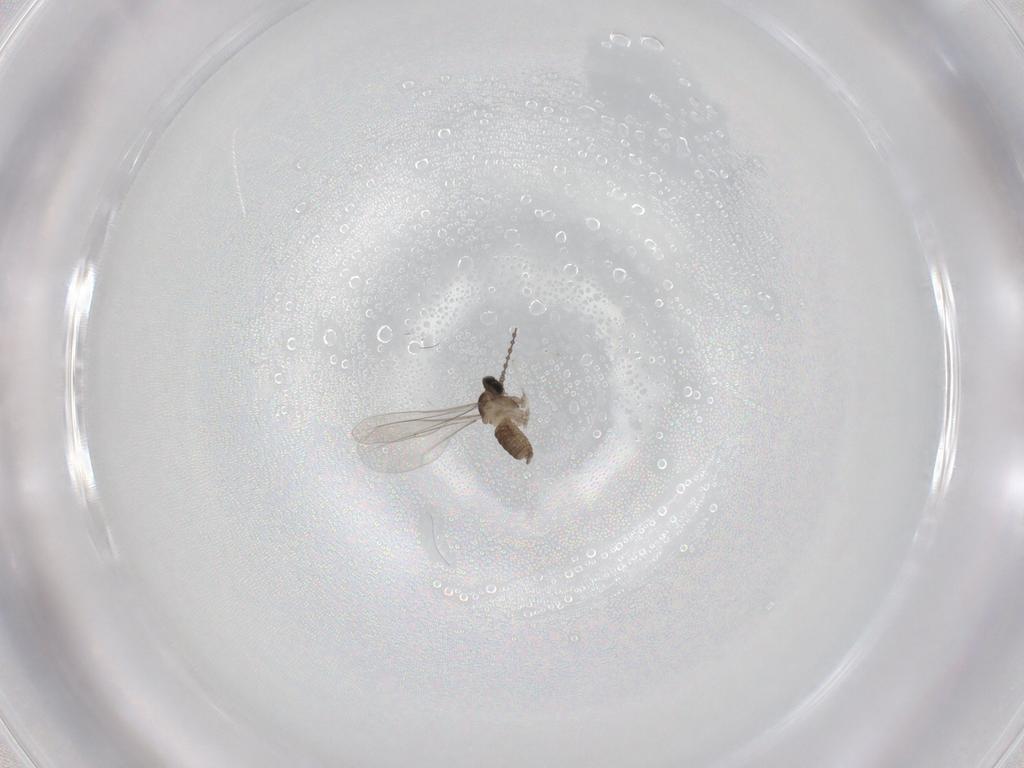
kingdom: Animalia
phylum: Arthropoda
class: Insecta
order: Diptera
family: Cecidomyiidae
